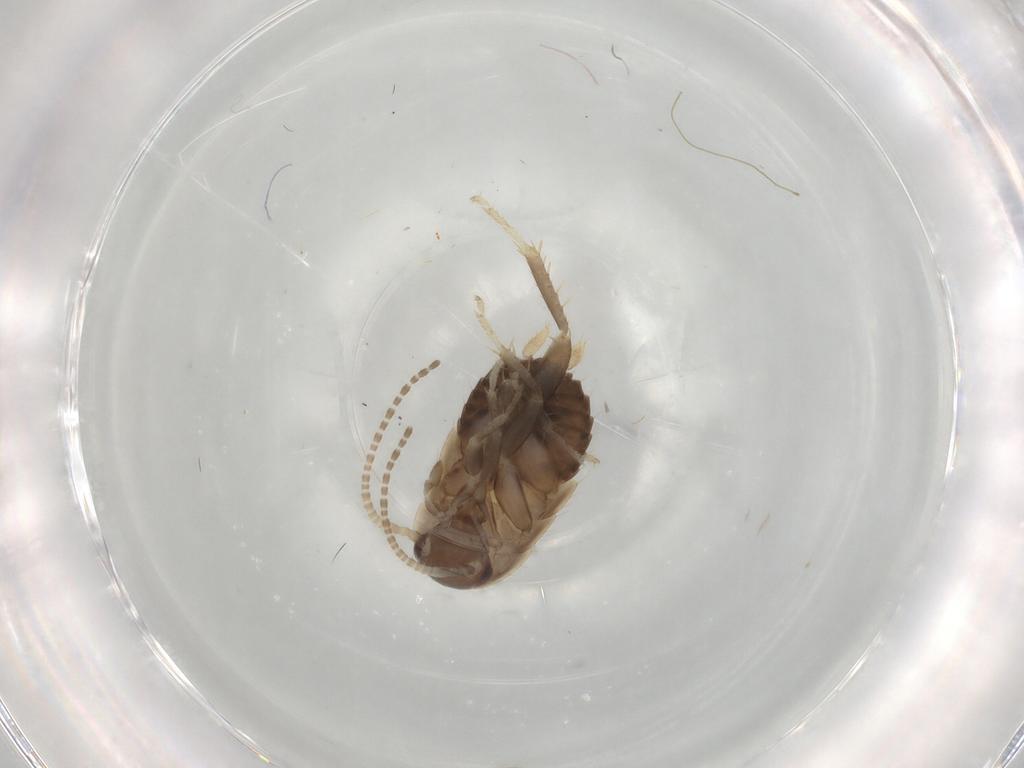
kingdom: Animalia
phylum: Arthropoda
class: Insecta
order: Blattodea
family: Ectobiidae
